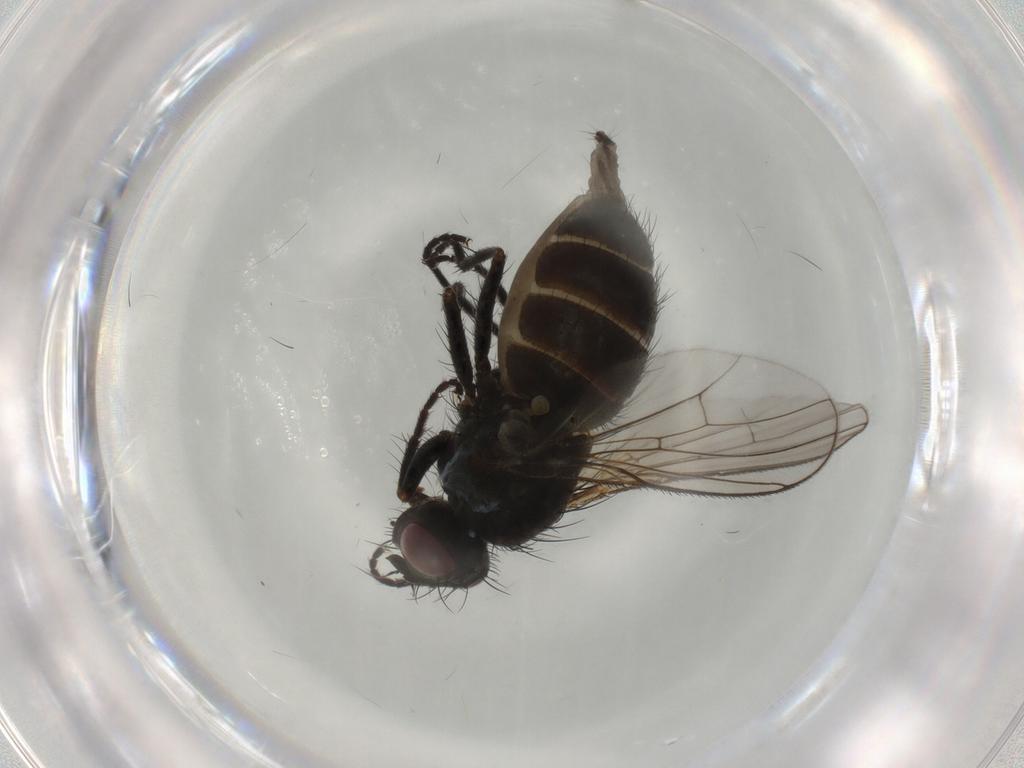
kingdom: Animalia
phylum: Arthropoda
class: Insecta
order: Diptera
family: Muscidae
